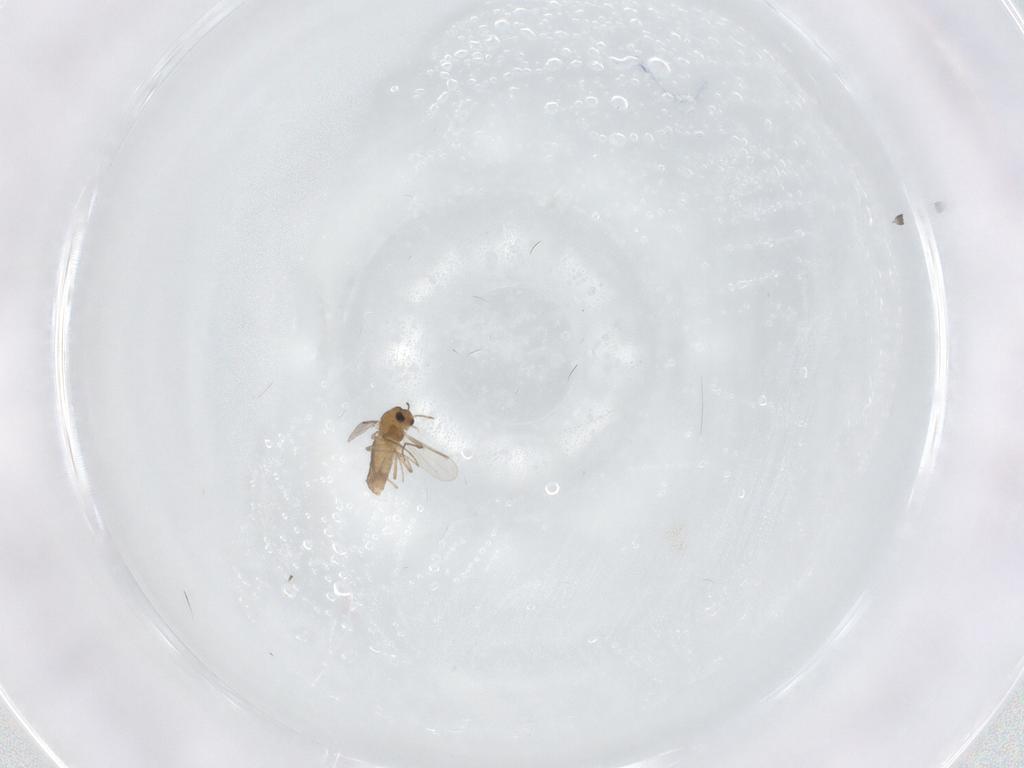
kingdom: Animalia
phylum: Arthropoda
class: Insecta
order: Diptera
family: Chironomidae
